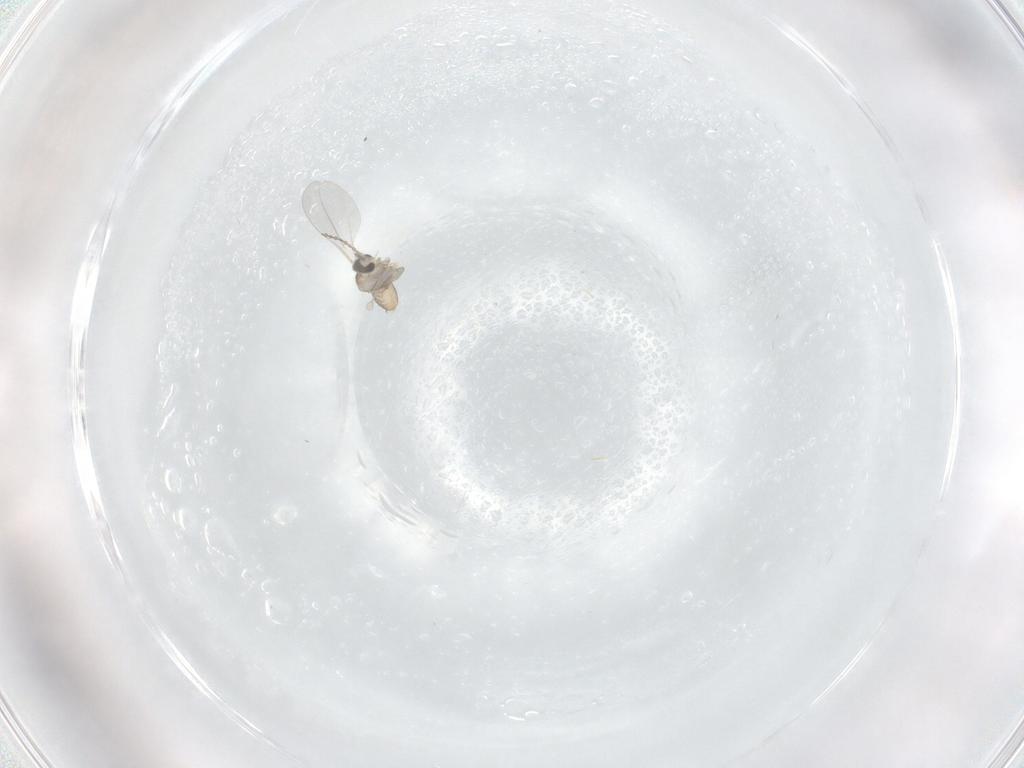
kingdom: Animalia
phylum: Arthropoda
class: Insecta
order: Diptera
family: Cecidomyiidae
